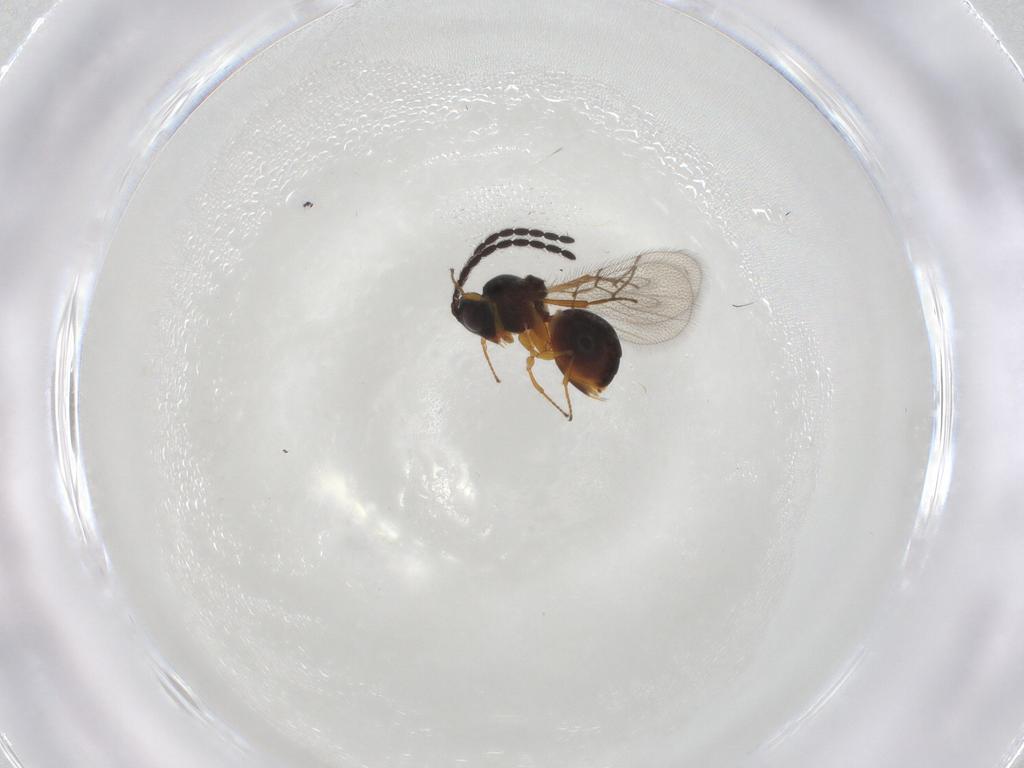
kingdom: Animalia
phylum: Arthropoda
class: Insecta
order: Hymenoptera
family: Figitidae
